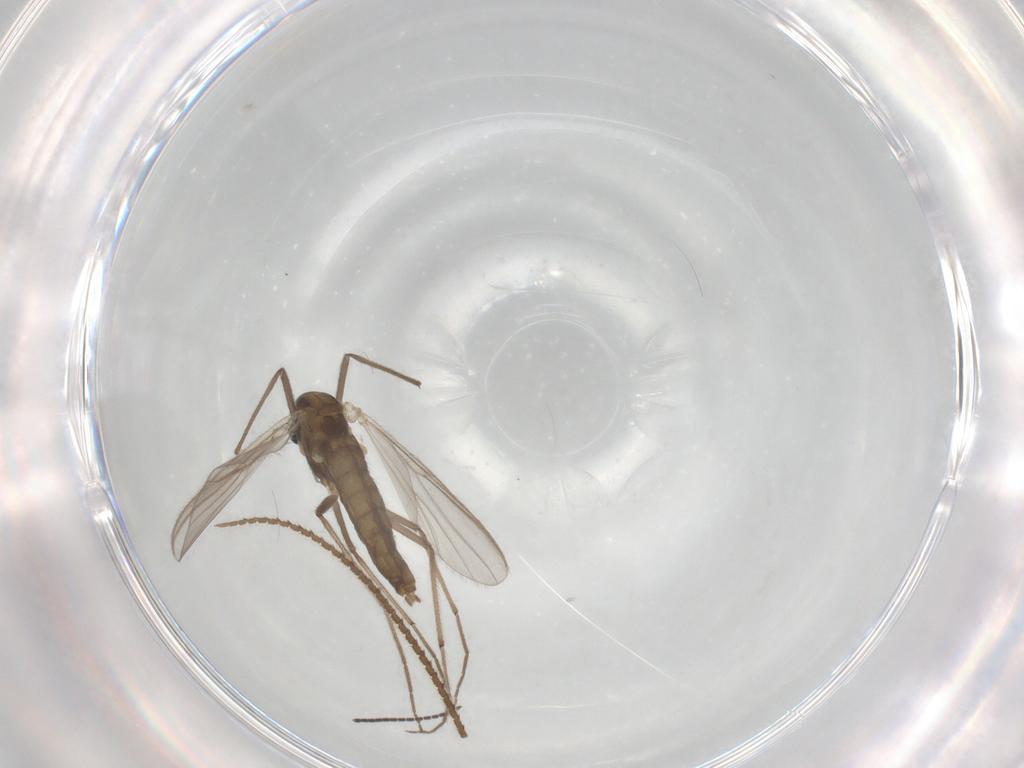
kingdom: Animalia
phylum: Arthropoda
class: Insecta
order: Diptera
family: Chironomidae
